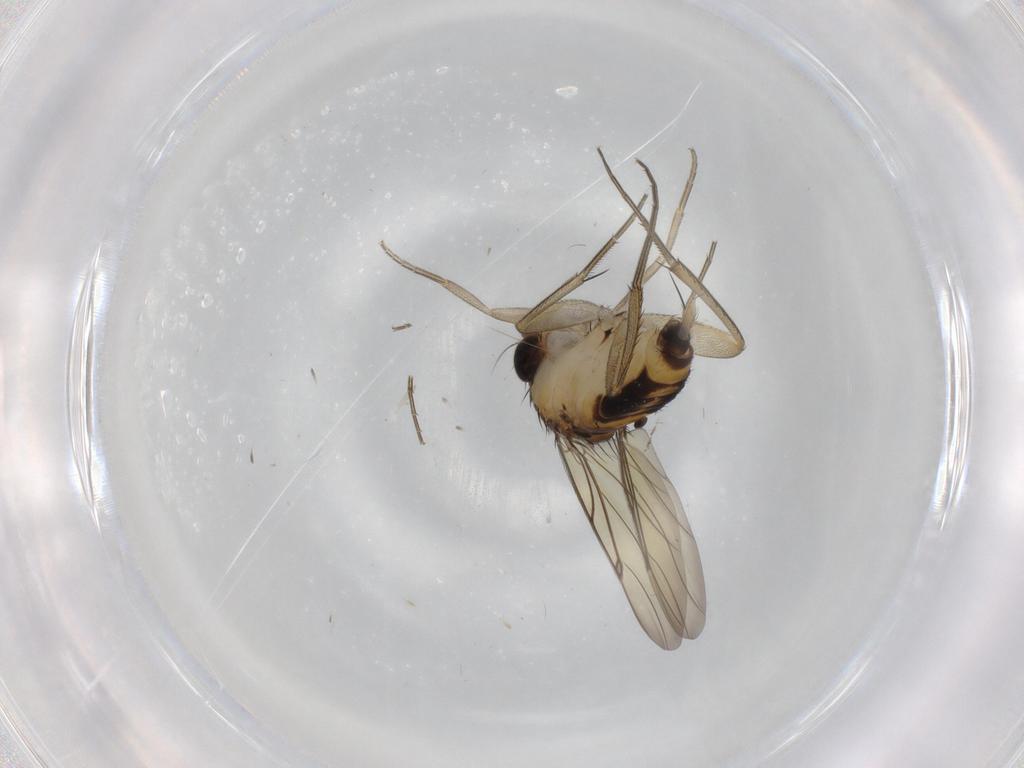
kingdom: Animalia
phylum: Arthropoda
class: Insecta
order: Diptera
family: Phoridae
